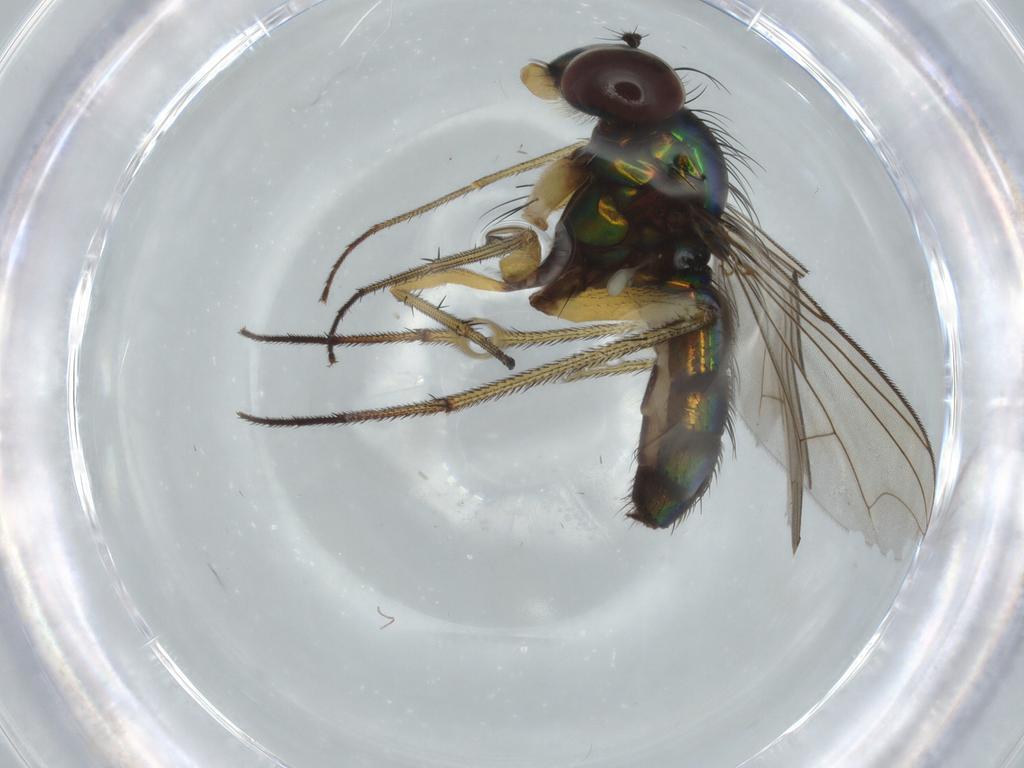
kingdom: Animalia
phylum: Arthropoda
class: Insecta
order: Diptera
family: Dolichopodidae
